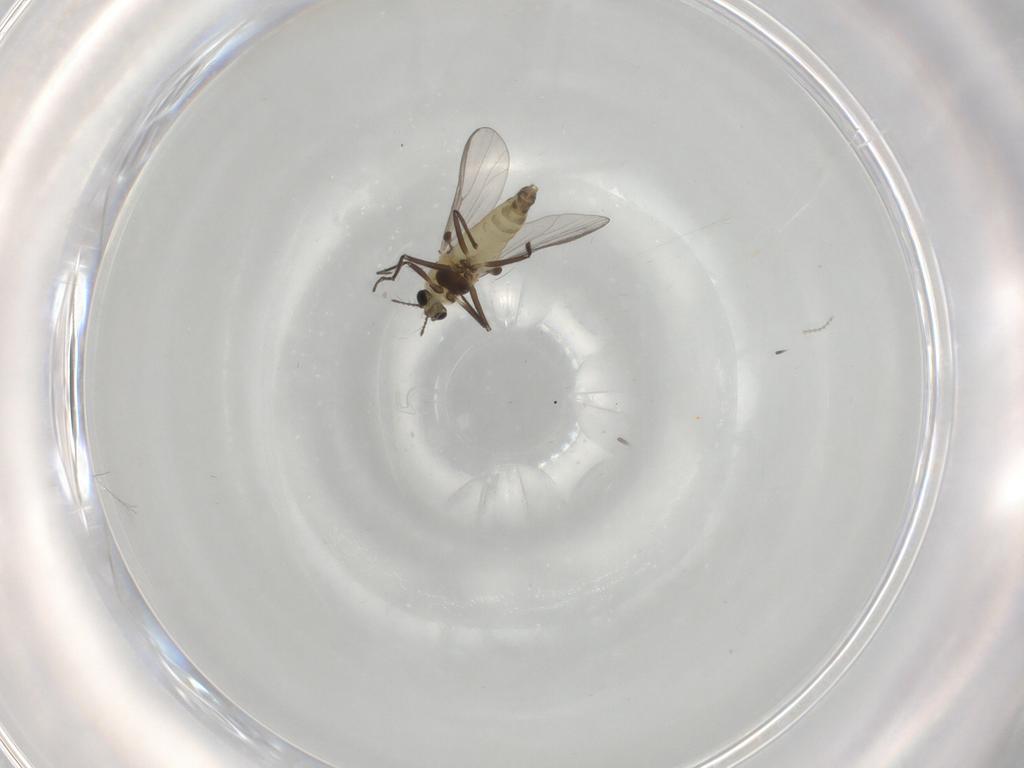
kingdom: Animalia
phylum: Arthropoda
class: Insecta
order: Diptera
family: Chironomidae
